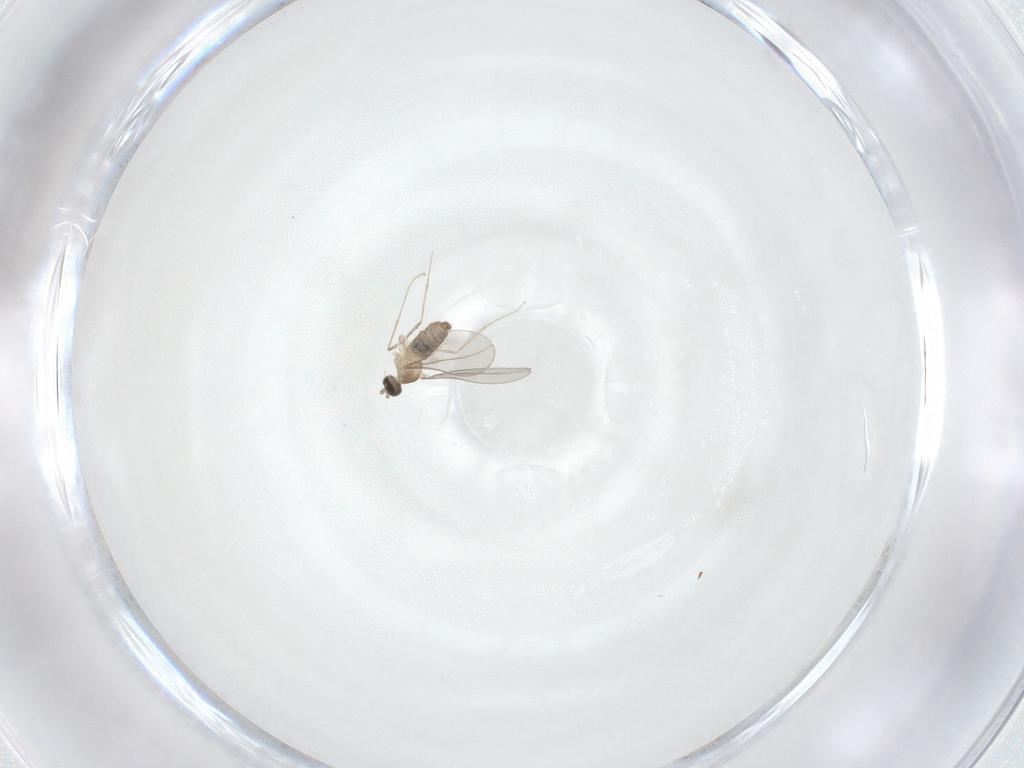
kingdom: Animalia
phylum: Arthropoda
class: Insecta
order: Diptera
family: Cecidomyiidae
